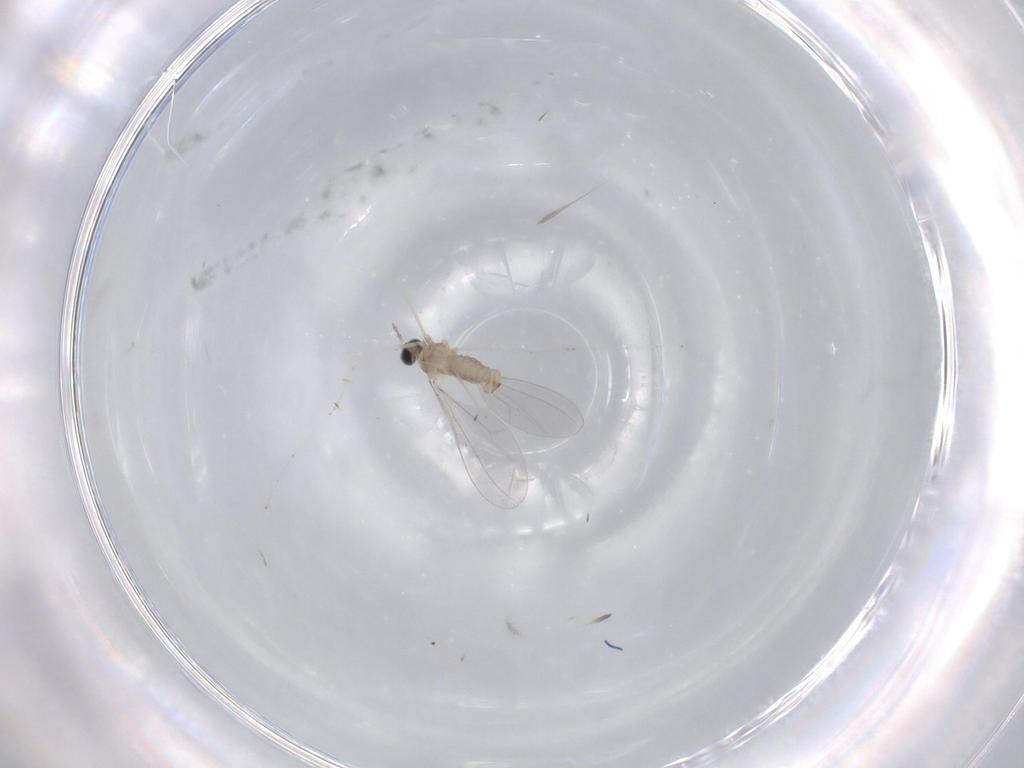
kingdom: Animalia
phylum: Arthropoda
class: Insecta
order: Diptera
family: Cecidomyiidae
